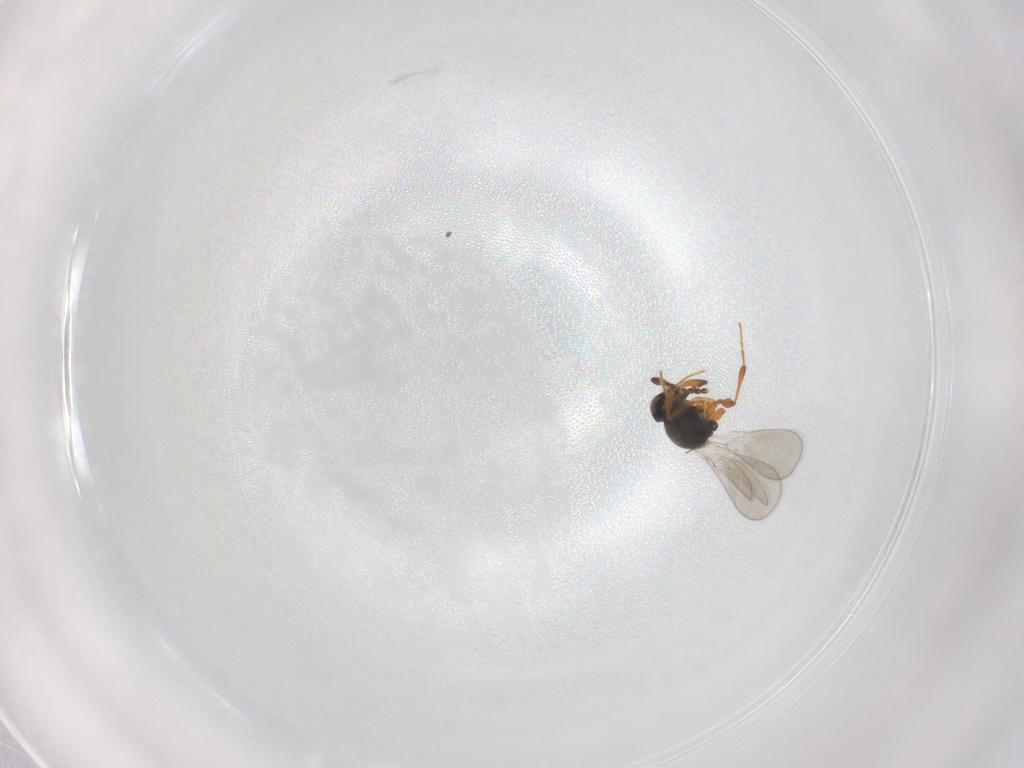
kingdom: Animalia
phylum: Arthropoda
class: Insecta
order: Hymenoptera
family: Platygastridae
